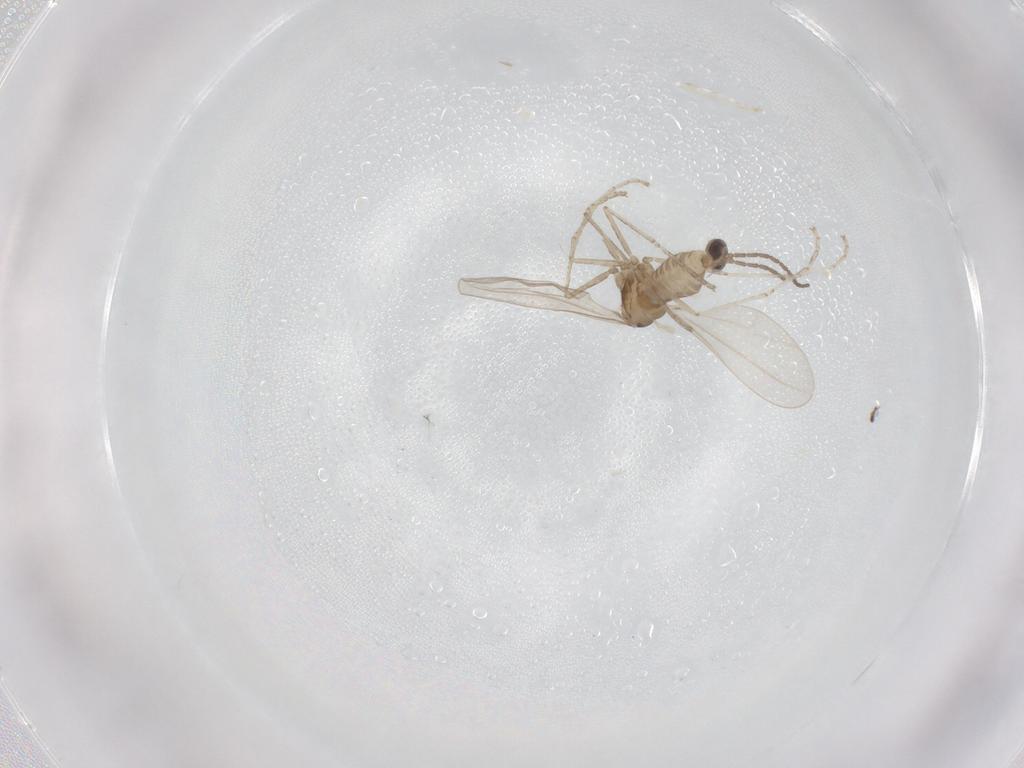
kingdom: Animalia
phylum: Arthropoda
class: Insecta
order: Diptera
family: Cecidomyiidae
